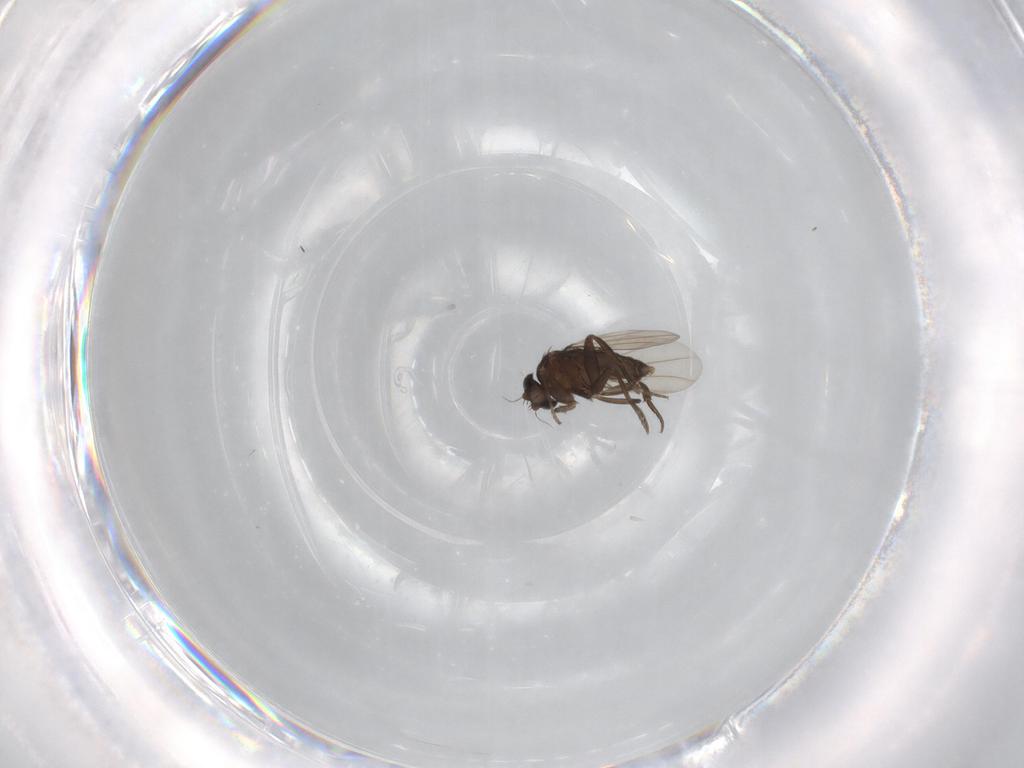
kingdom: Animalia
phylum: Arthropoda
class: Insecta
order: Diptera
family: Phoridae
